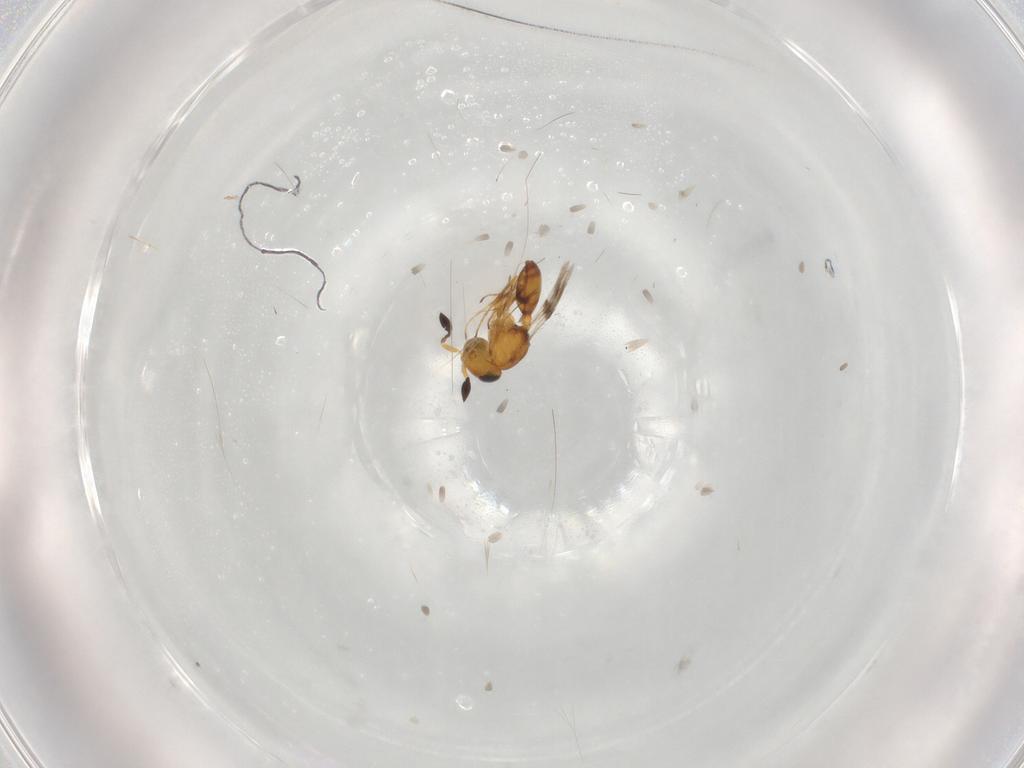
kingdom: Animalia
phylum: Arthropoda
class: Insecta
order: Hymenoptera
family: Scelionidae
